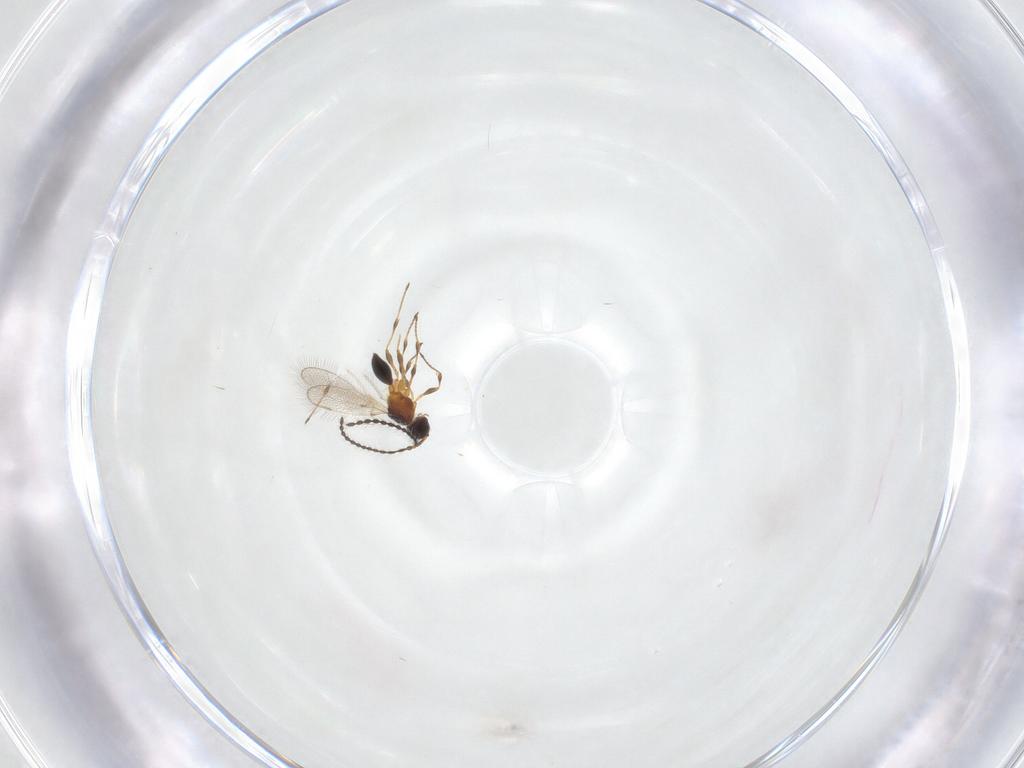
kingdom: Animalia
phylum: Arthropoda
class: Insecta
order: Hymenoptera
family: Diapriidae
